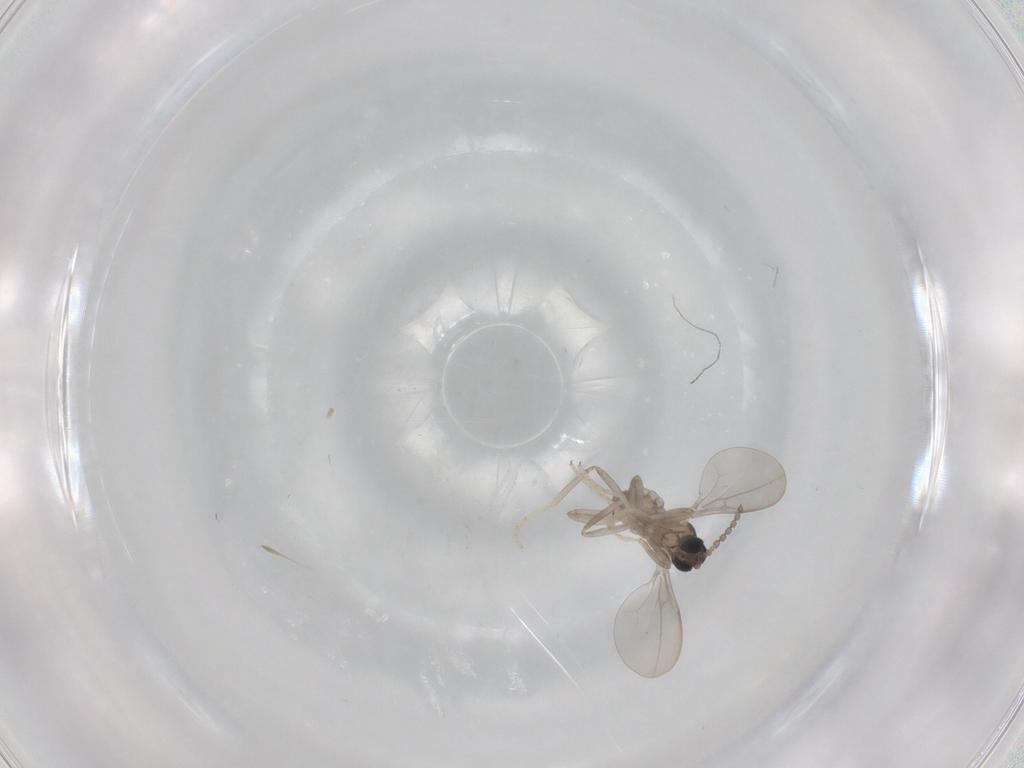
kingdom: Animalia
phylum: Arthropoda
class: Insecta
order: Diptera
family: Cecidomyiidae
